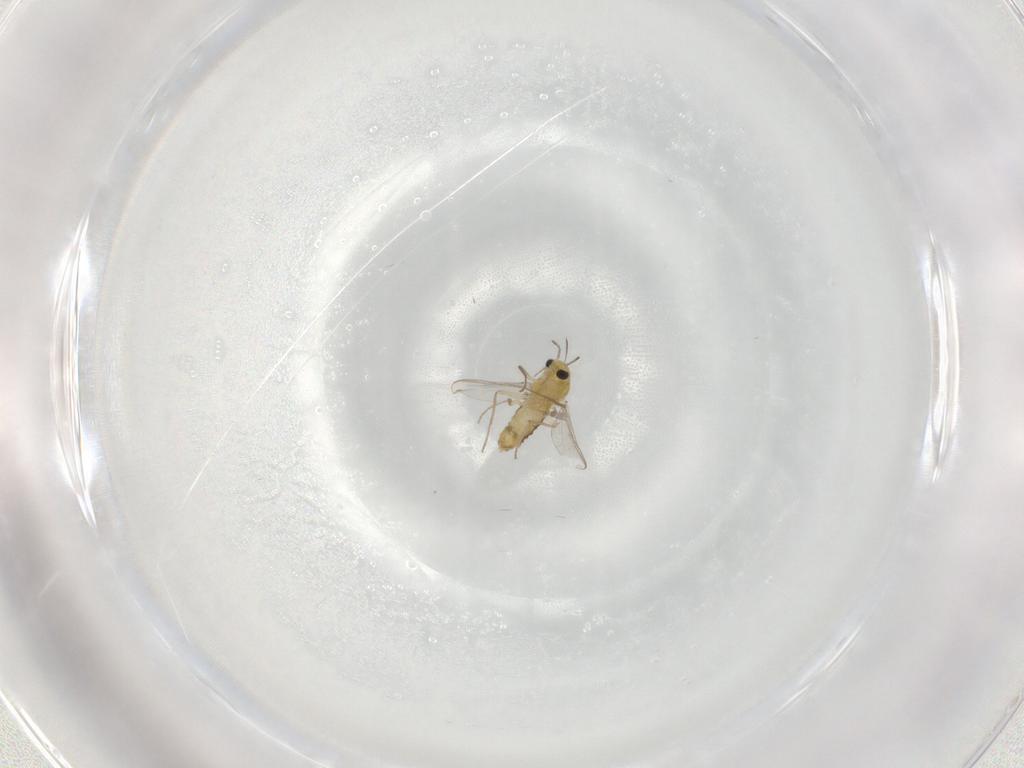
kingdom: Animalia
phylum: Arthropoda
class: Insecta
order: Diptera
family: Chironomidae
